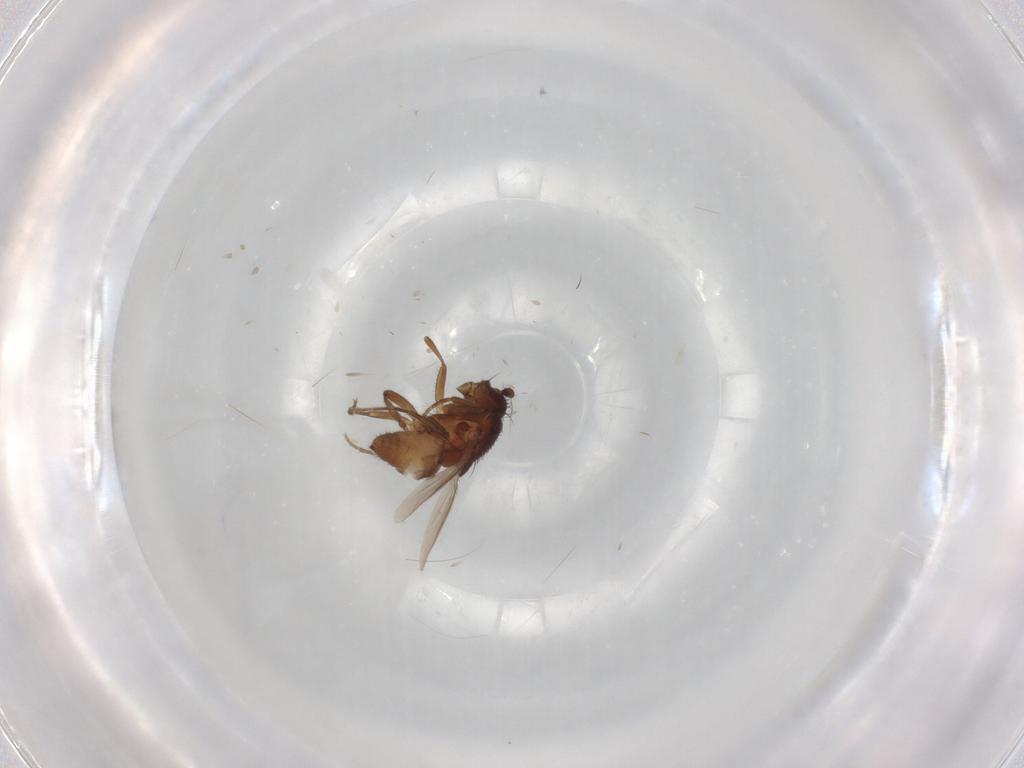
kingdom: Animalia
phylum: Arthropoda
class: Insecta
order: Diptera
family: Sphaeroceridae
